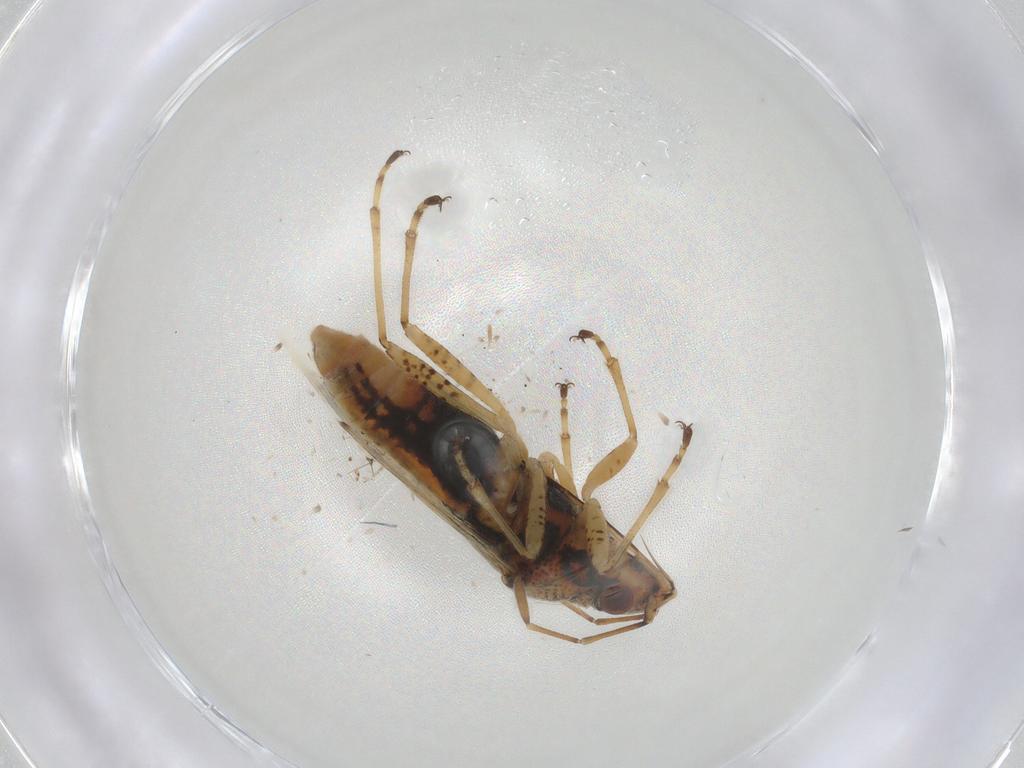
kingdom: Animalia
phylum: Arthropoda
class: Insecta
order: Hemiptera
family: Lygaeidae
